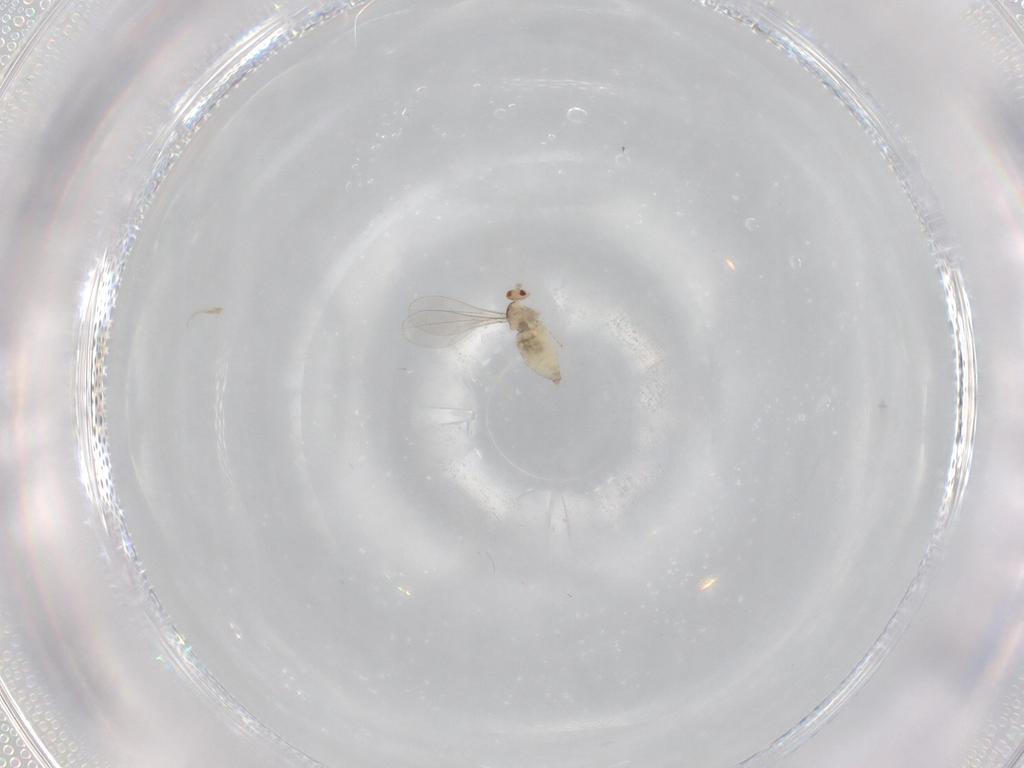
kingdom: Animalia
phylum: Arthropoda
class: Insecta
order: Diptera
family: Cecidomyiidae
